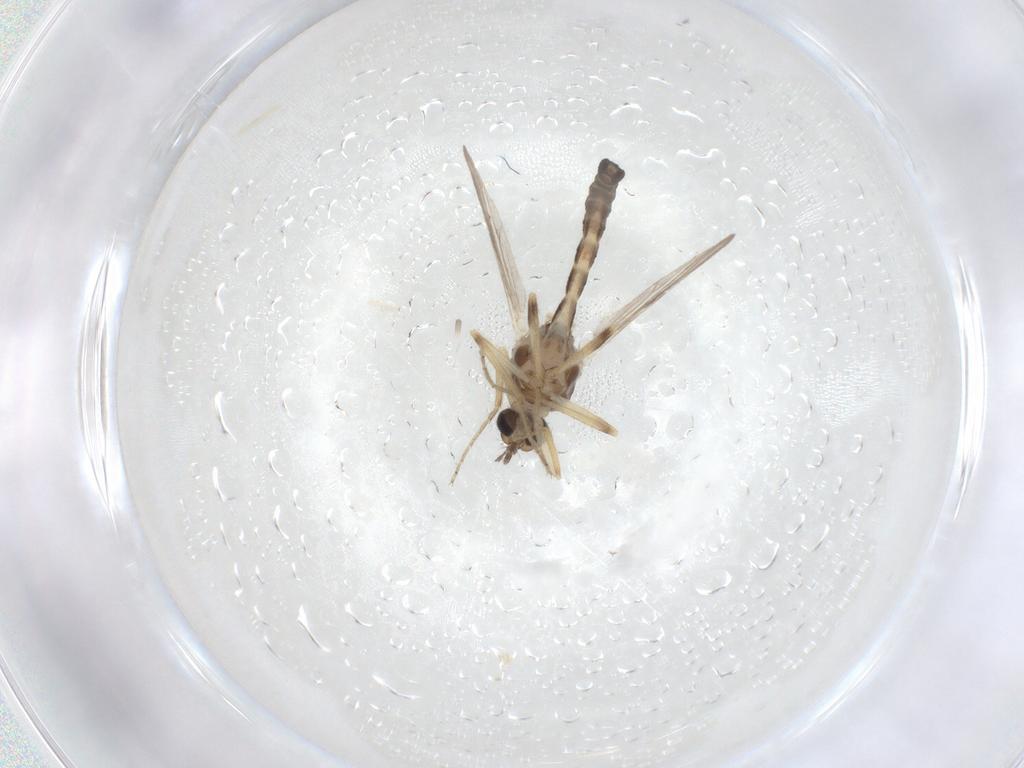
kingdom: Animalia
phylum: Arthropoda
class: Insecta
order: Diptera
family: Ceratopogonidae
